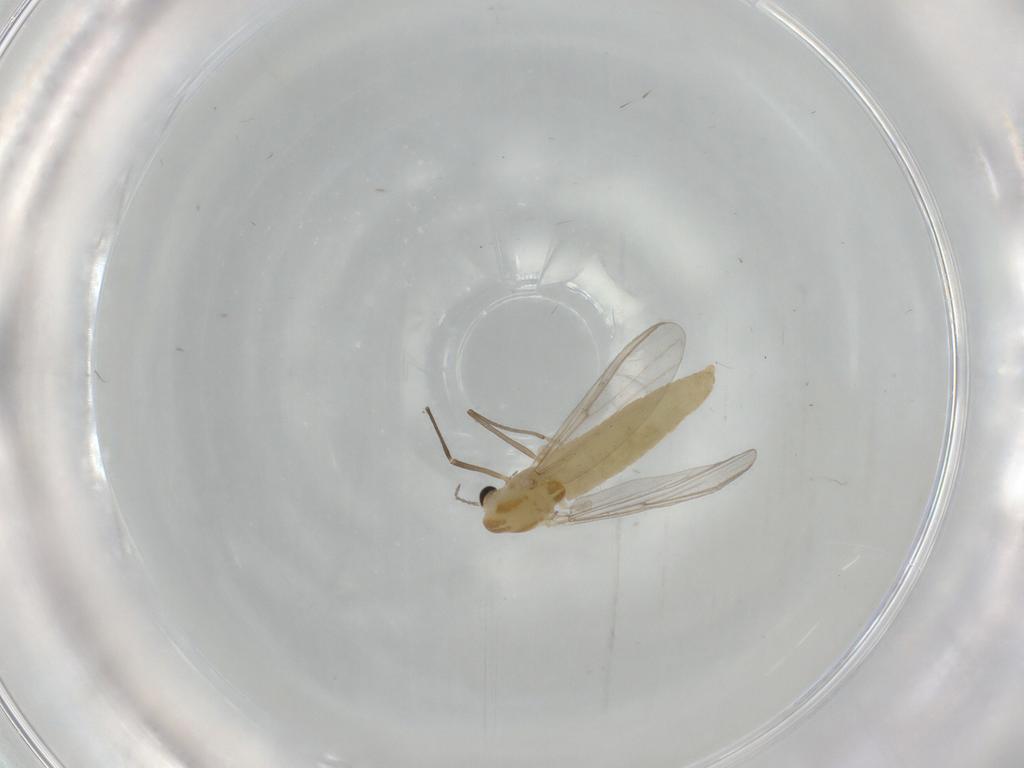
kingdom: Animalia
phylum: Arthropoda
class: Insecta
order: Diptera
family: Chironomidae
